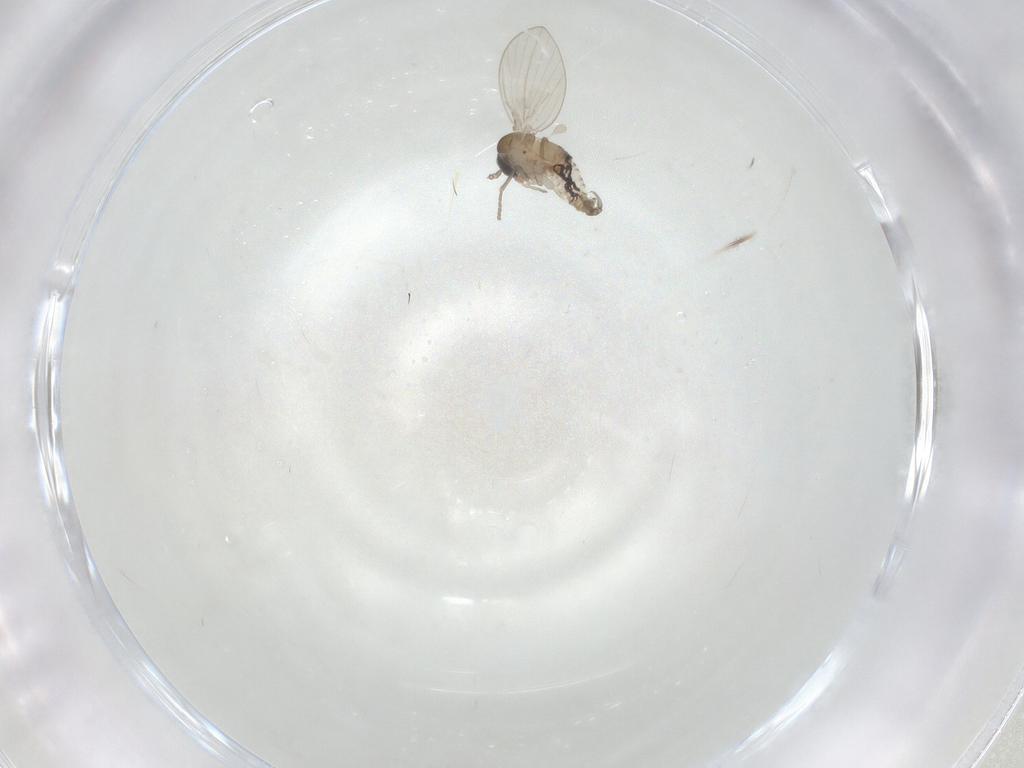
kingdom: Animalia
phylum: Arthropoda
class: Insecta
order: Diptera
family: Psychodidae
